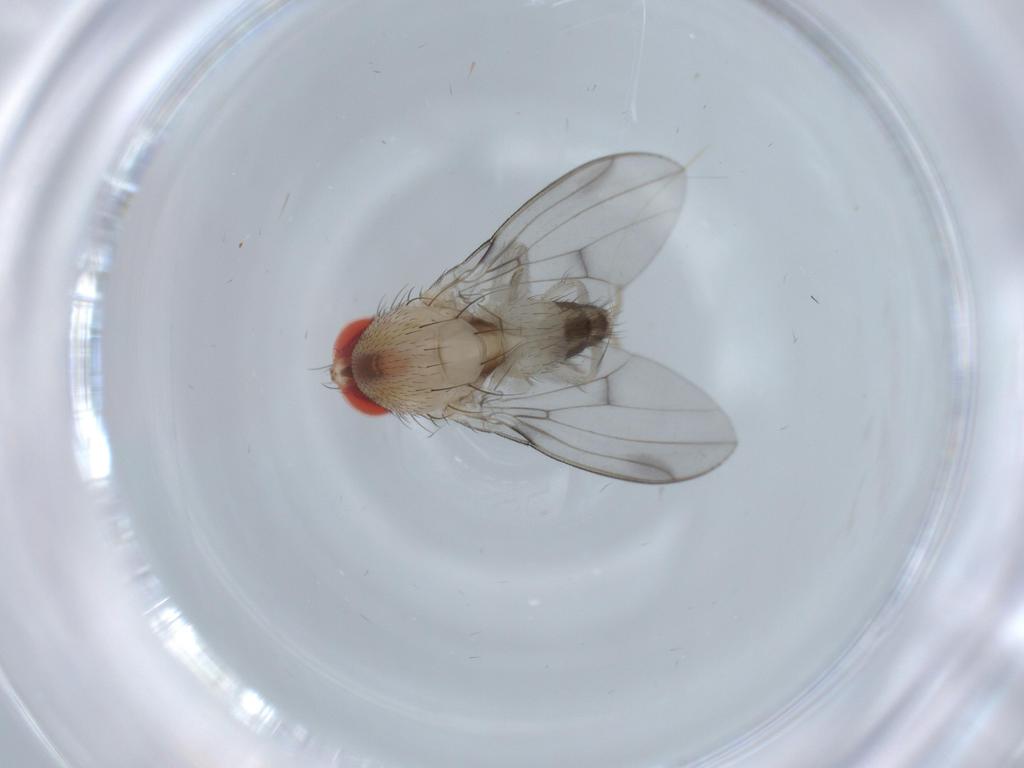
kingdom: Animalia
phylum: Arthropoda
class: Insecta
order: Diptera
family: Drosophilidae
